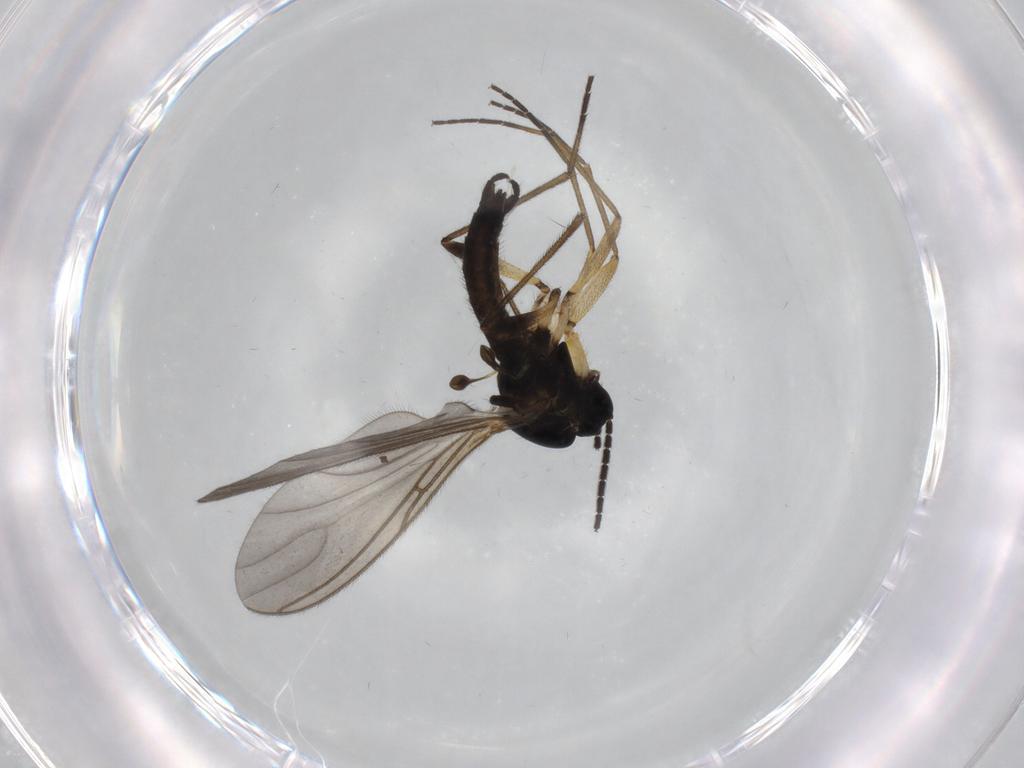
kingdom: Animalia
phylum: Arthropoda
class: Insecta
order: Diptera
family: Sciaridae
